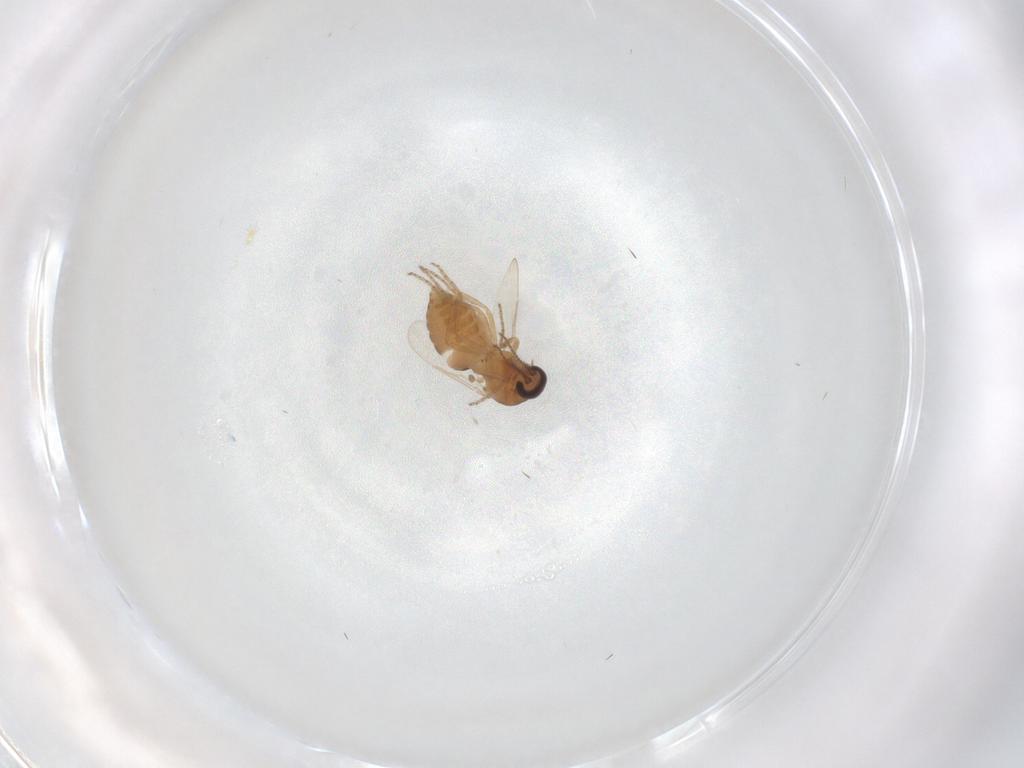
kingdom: Animalia
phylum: Arthropoda
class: Insecta
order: Diptera
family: Ceratopogonidae
